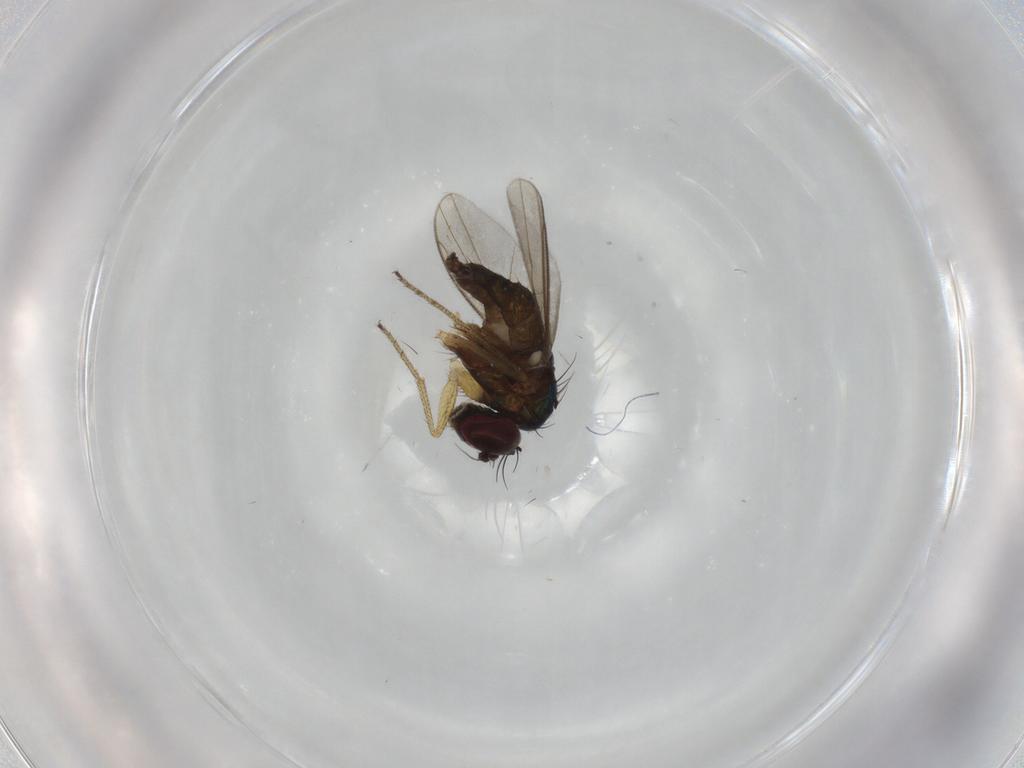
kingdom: Animalia
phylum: Arthropoda
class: Insecta
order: Diptera
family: Dolichopodidae
